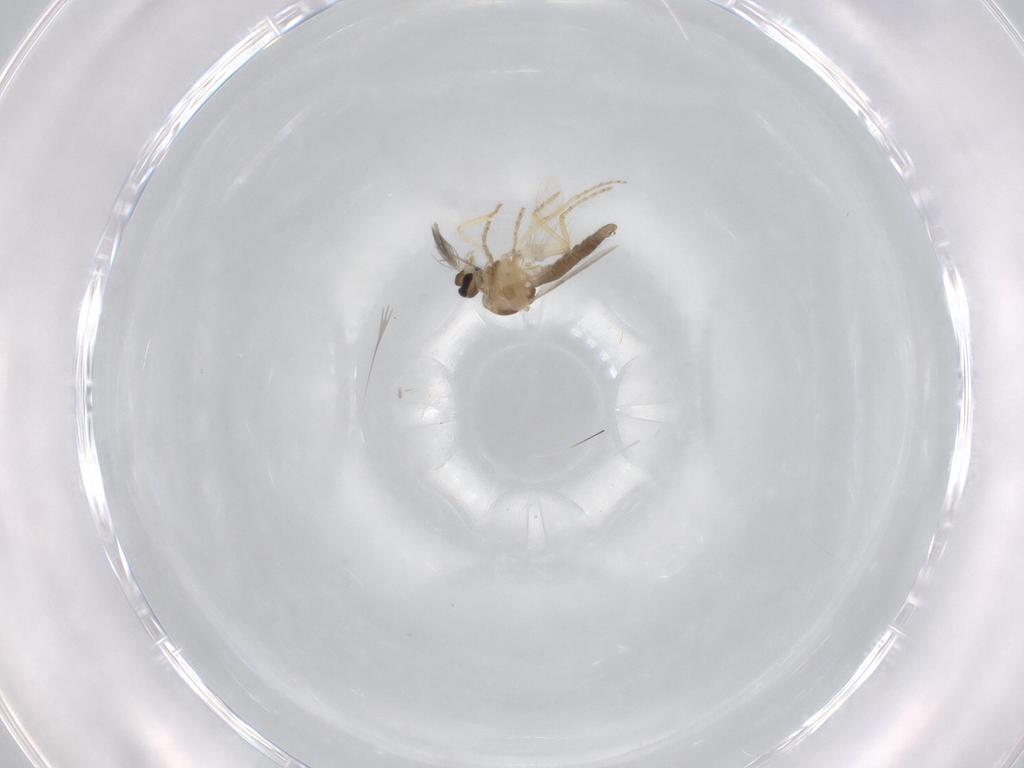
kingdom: Animalia
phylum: Arthropoda
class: Insecta
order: Diptera
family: Ceratopogonidae
